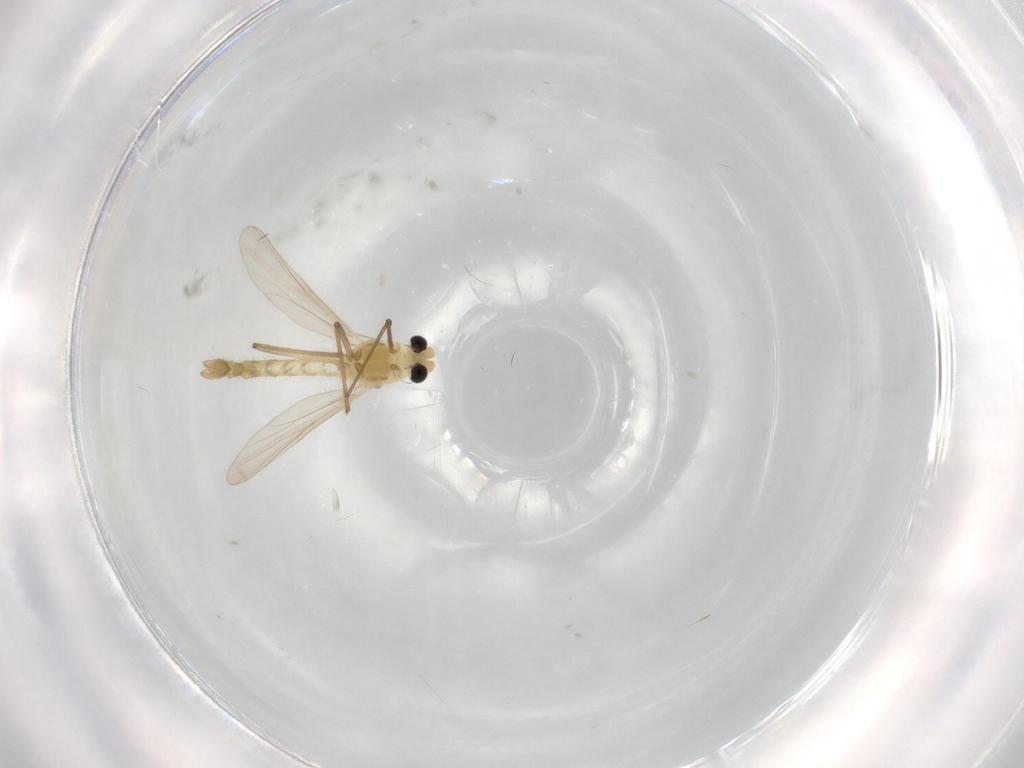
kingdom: Animalia
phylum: Arthropoda
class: Insecta
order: Diptera
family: Chironomidae
